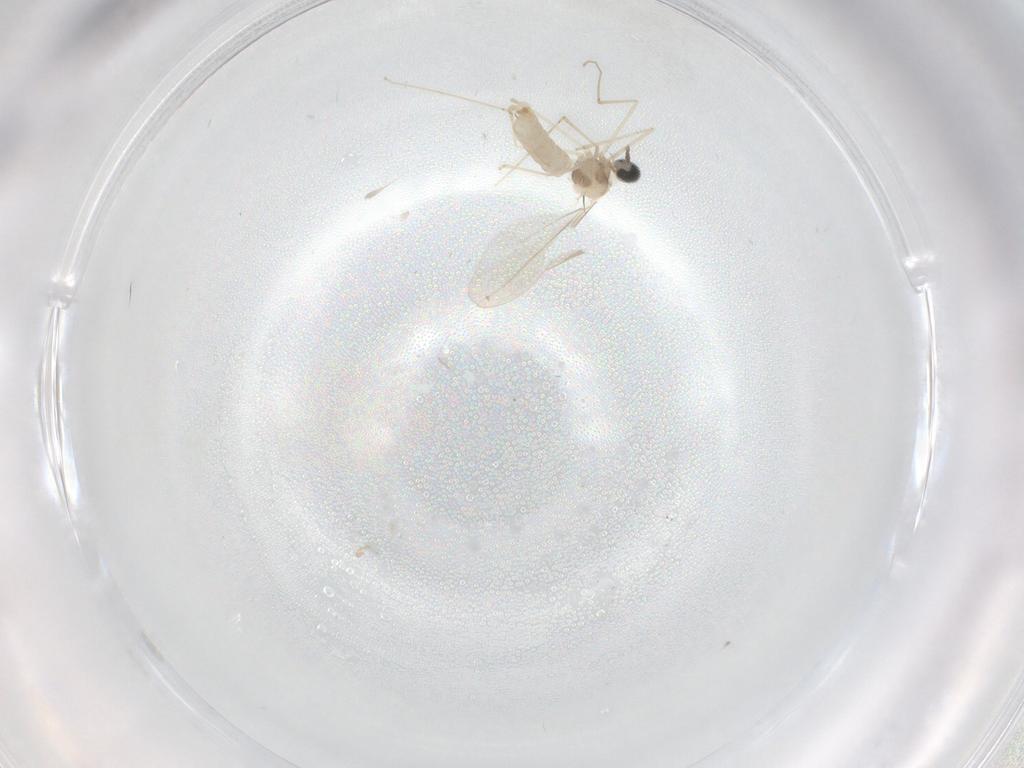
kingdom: Animalia
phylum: Arthropoda
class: Insecta
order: Diptera
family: Cecidomyiidae
